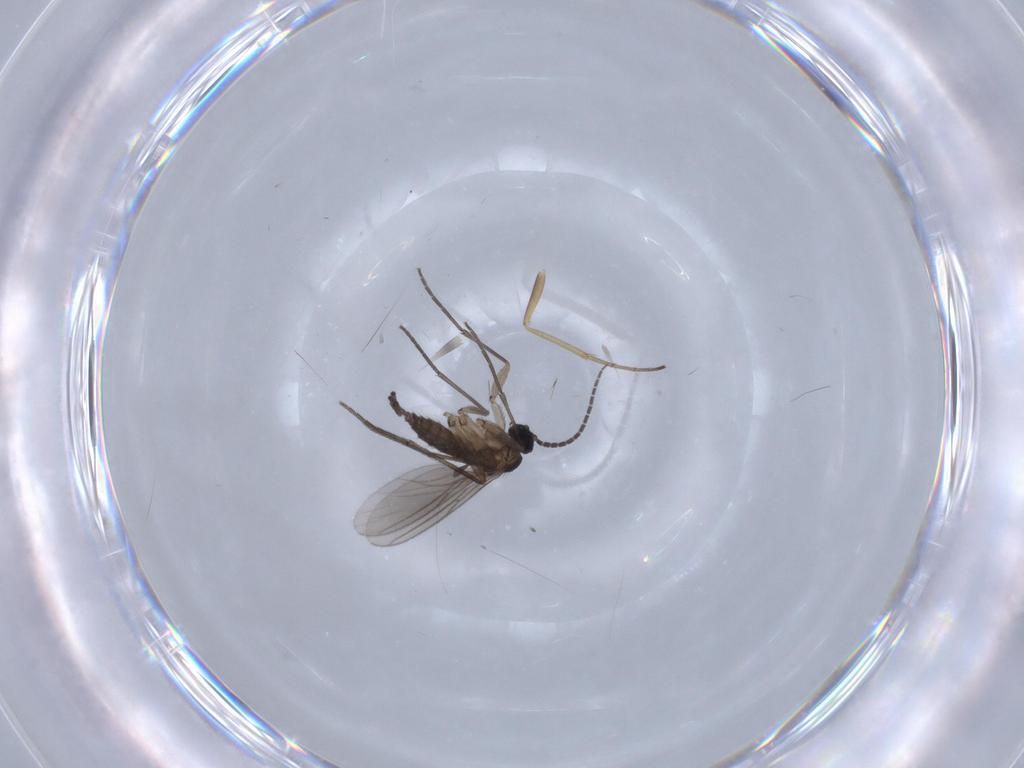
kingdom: Animalia
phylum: Arthropoda
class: Insecta
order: Diptera
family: Sciaridae
